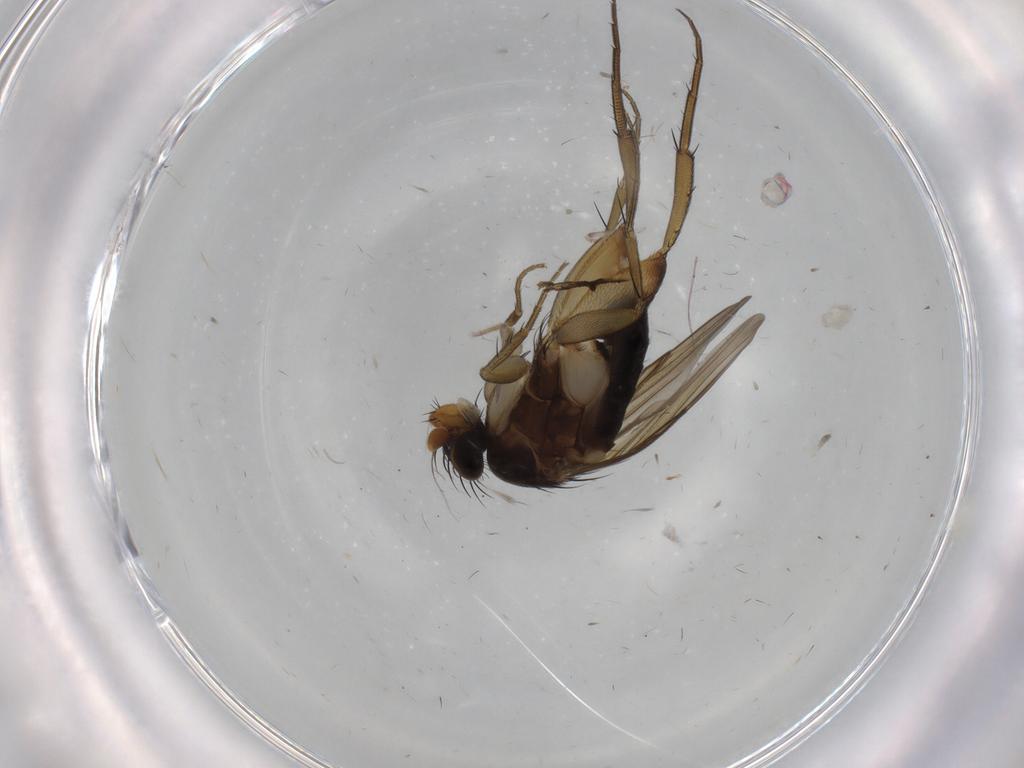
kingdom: Animalia
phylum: Arthropoda
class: Insecta
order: Diptera
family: Phoridae
